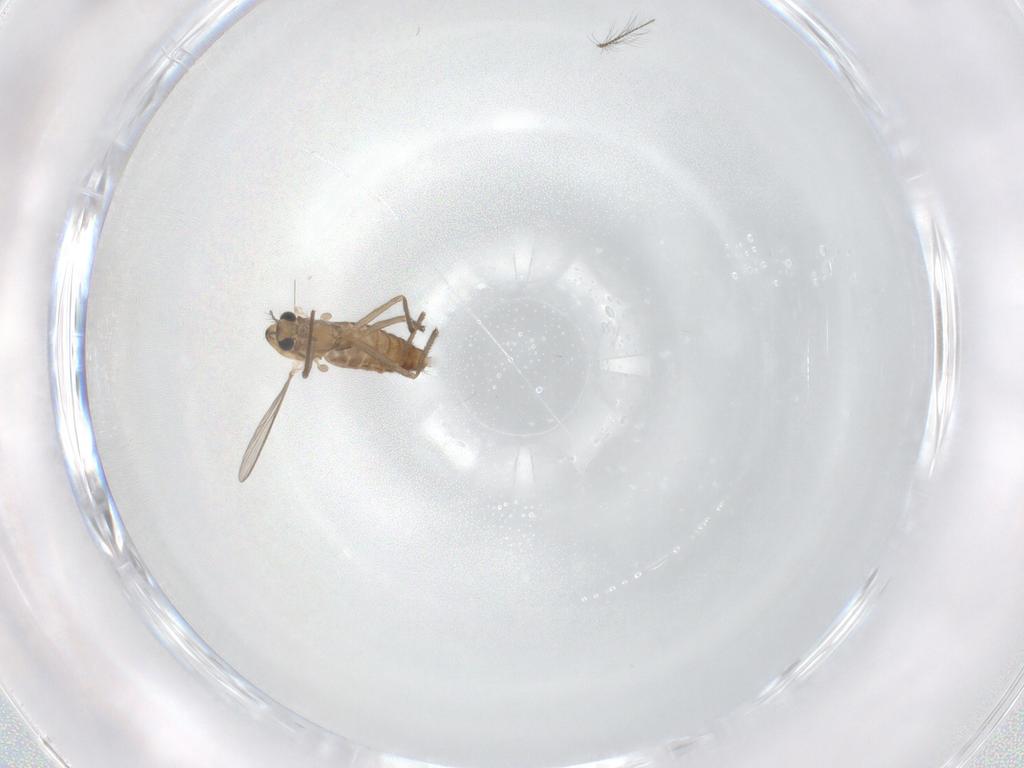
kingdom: Animalia
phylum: Arthropoda
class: Insecta
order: Diptera
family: Chironomidae
